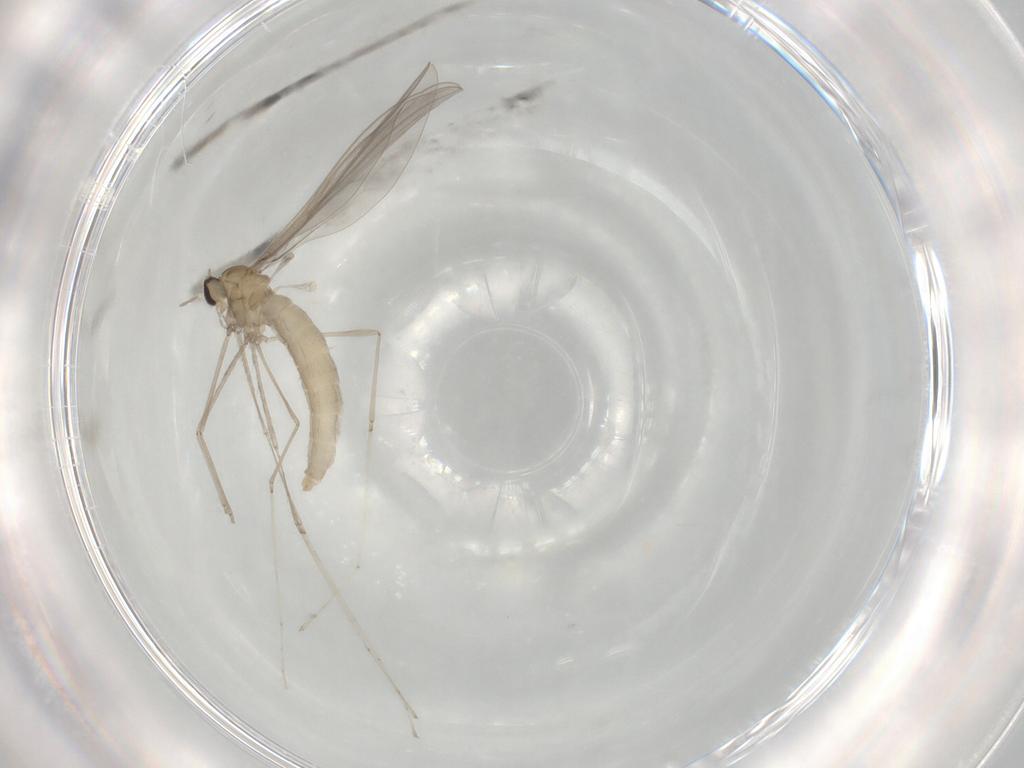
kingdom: Animalia
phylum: Arthropoda
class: Insecta
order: Diptera
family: Cecidomyiidae
